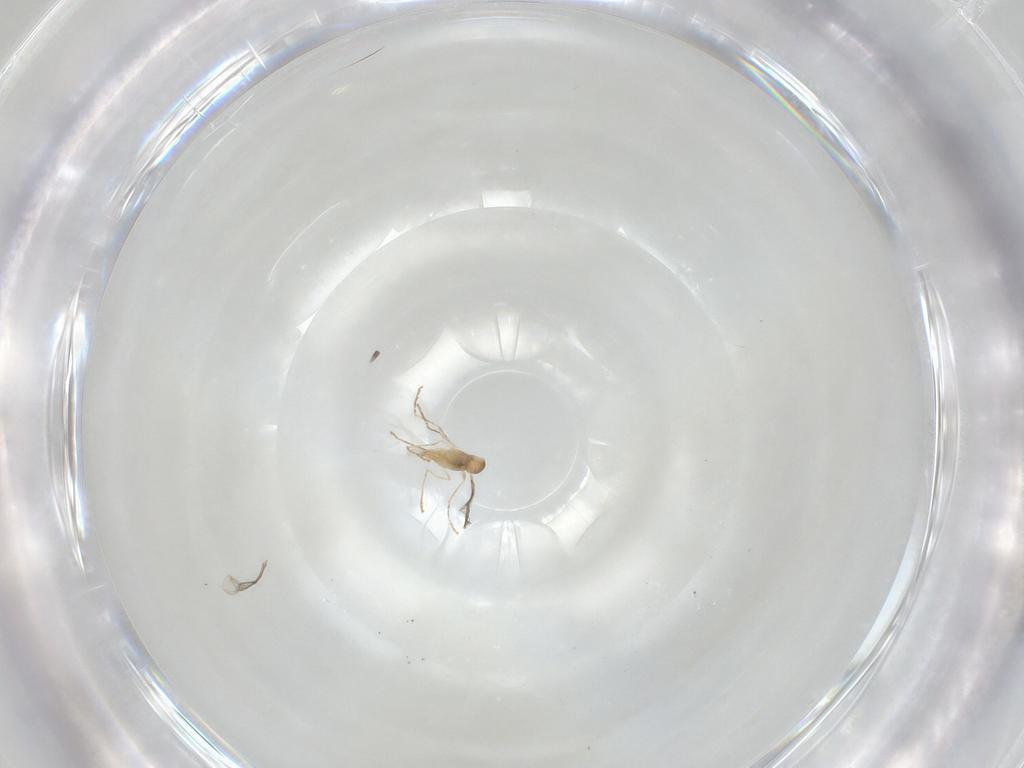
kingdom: Animalia
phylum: Arthropoda
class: Insecta
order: Diptera
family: Cecidomyiidae
